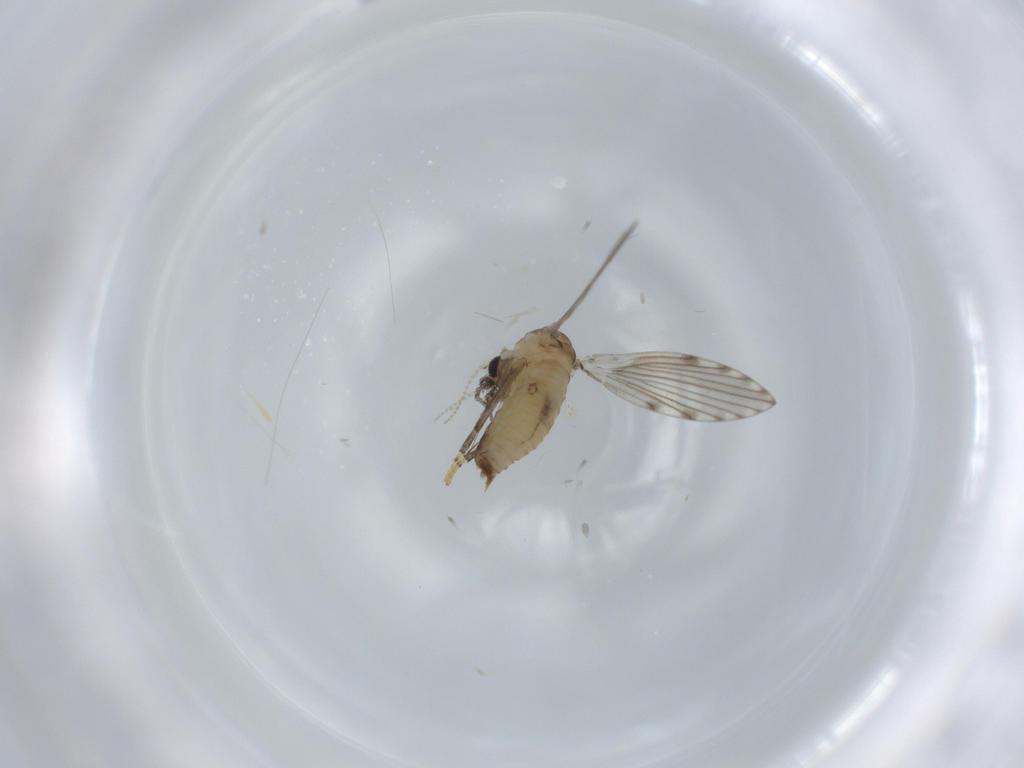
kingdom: Animalia
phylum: Arthropoda
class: Insecta
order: Diptera
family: Psychodidae
